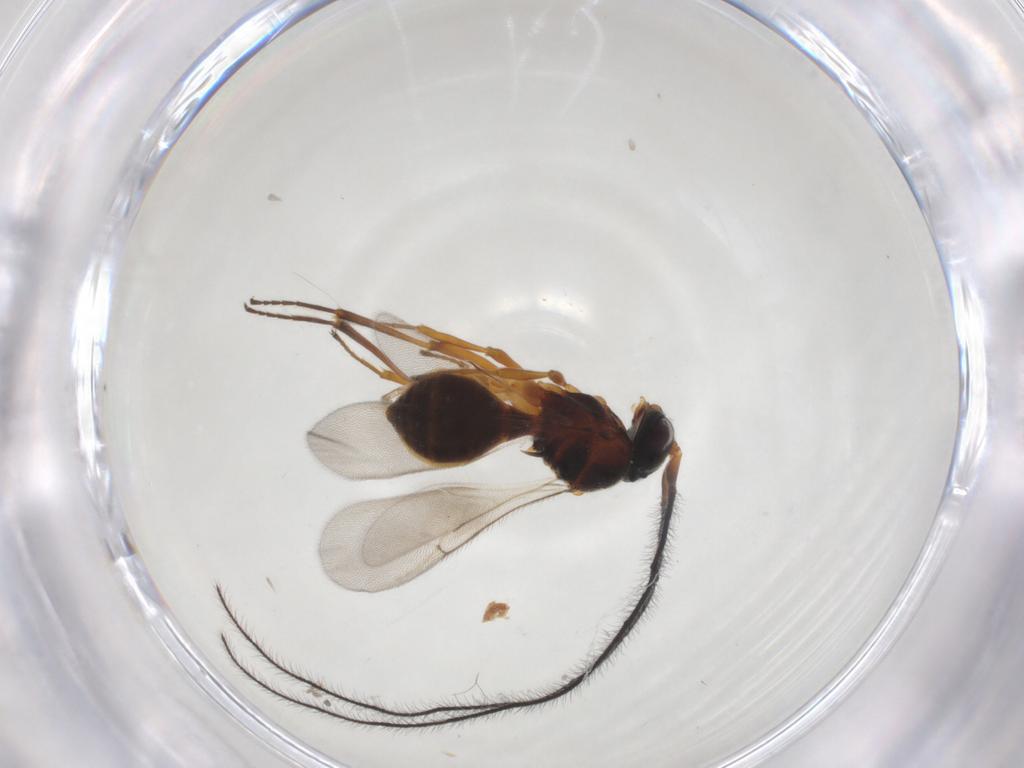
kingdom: Animalia
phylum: Arthropoda
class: Insecta
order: Hymenoptera
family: Scelionidae
